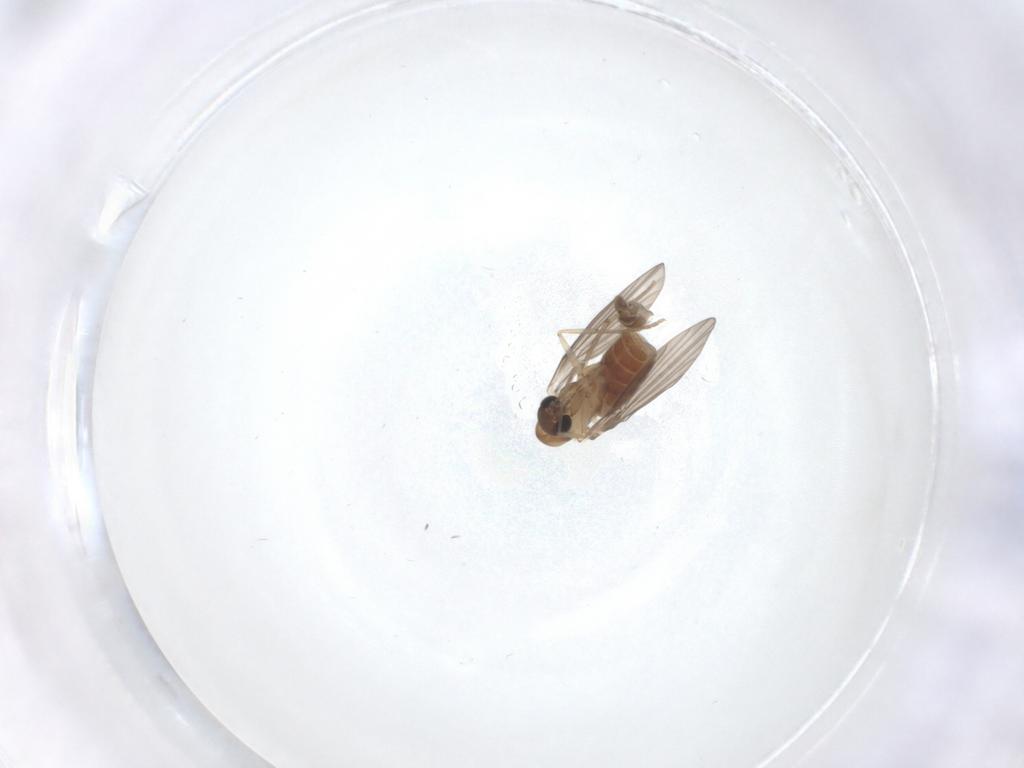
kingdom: Animalia
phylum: Arthropoda
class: Insecta
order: Diptera
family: Psychodidae
